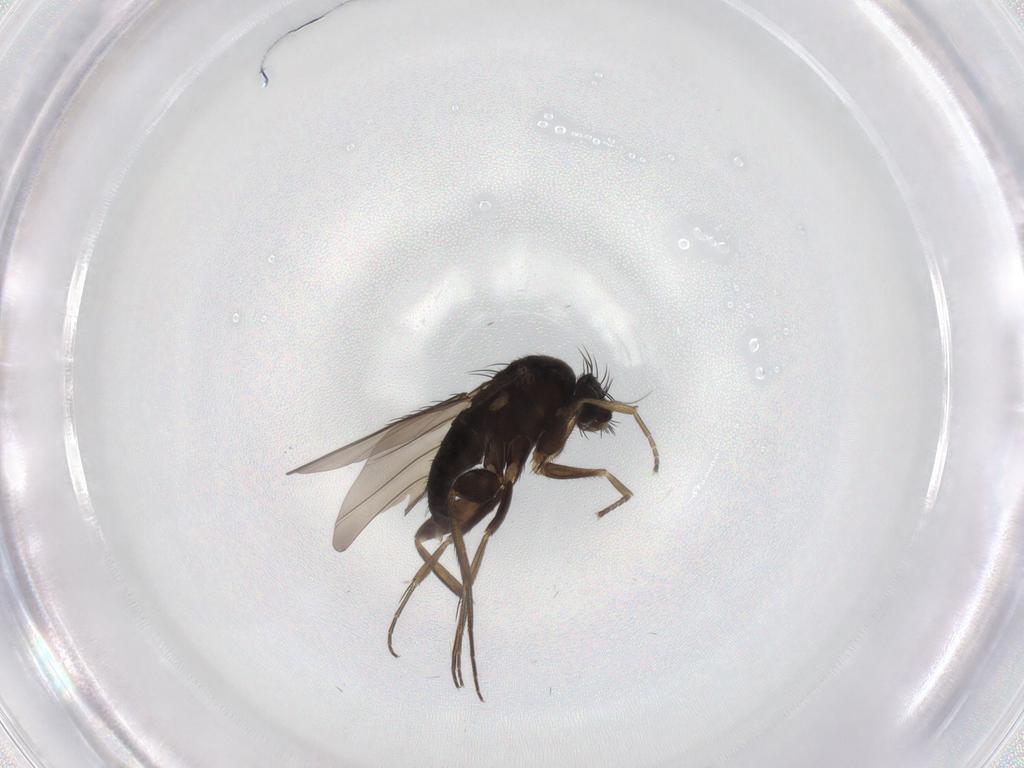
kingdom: Animalia
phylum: Arthropoda
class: Insecta
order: Diptera
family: Phoridae
